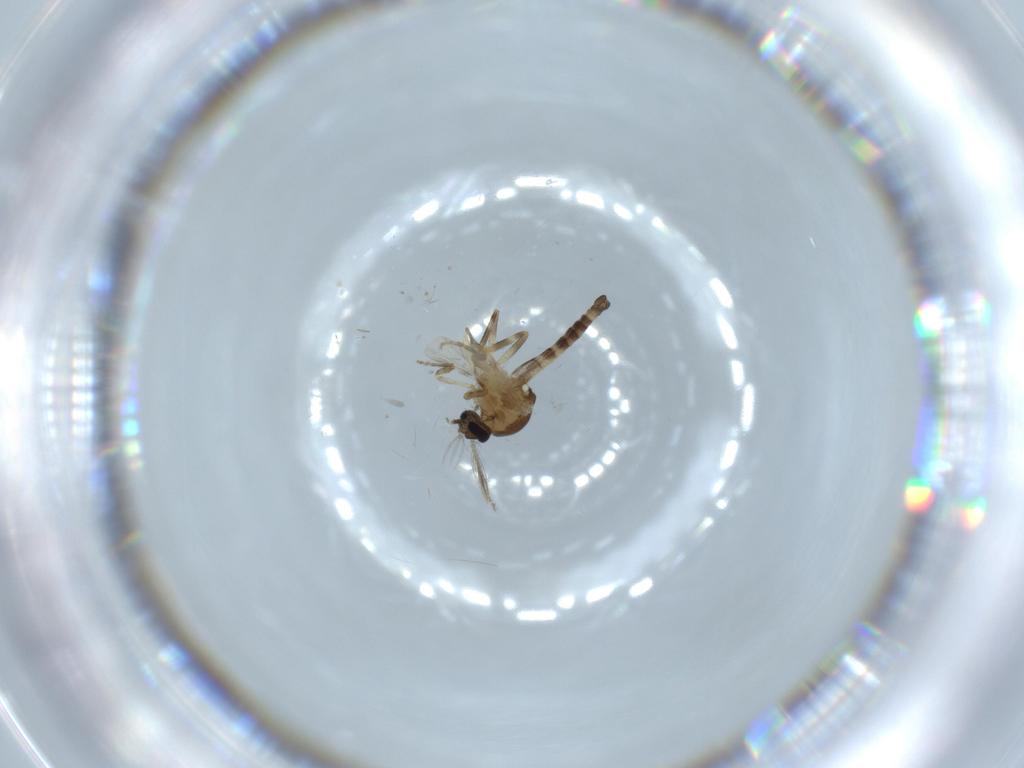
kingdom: Animalia
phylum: Arthropoda
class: Insecta
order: Diptera
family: Ceratopogonidae
